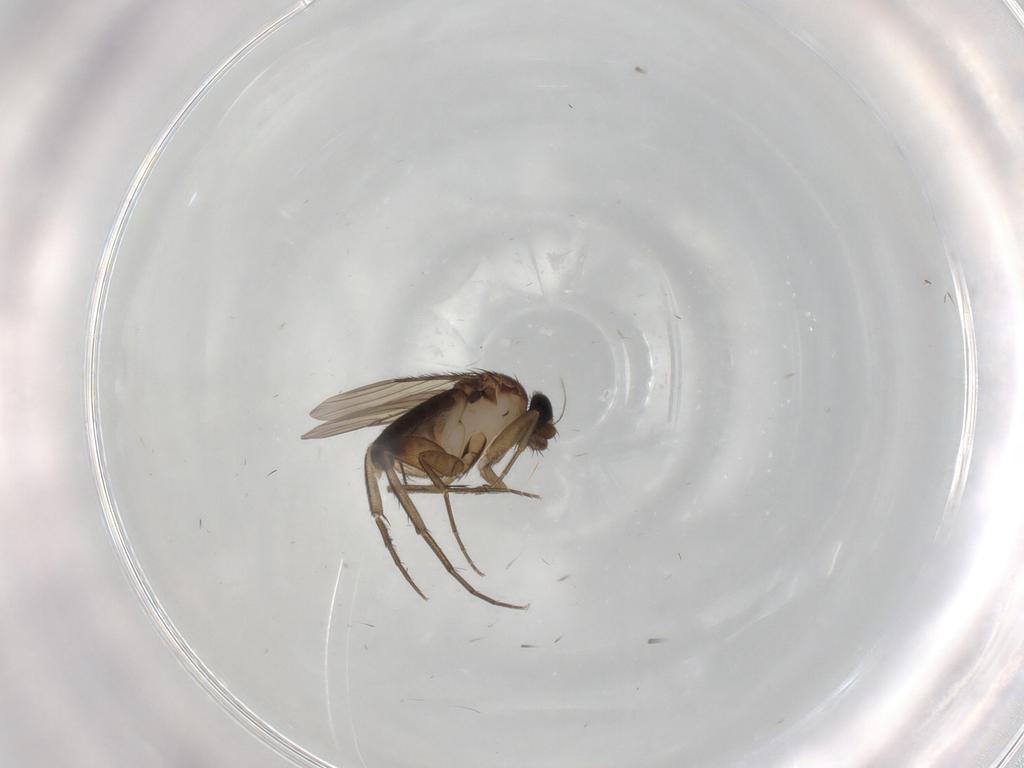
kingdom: Animalia
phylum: Arthropoda
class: Insecta
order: Diptera
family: Phoridae
